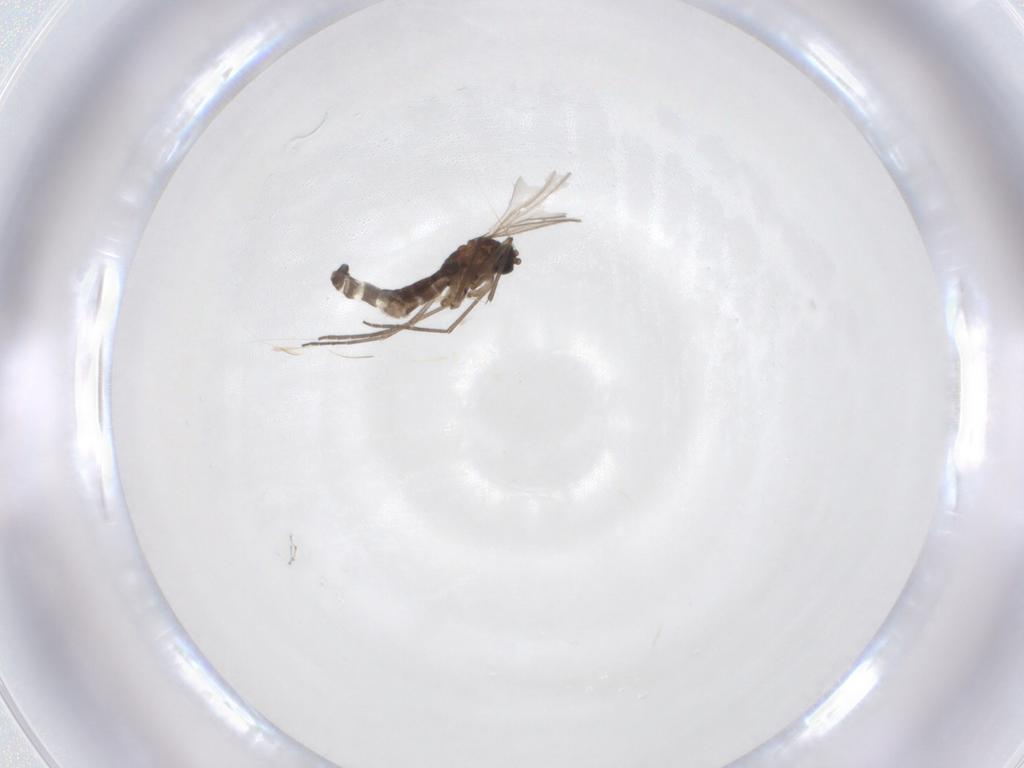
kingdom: Animalia
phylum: Arthropoda
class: Insecta
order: Diptera
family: Sciaridae
